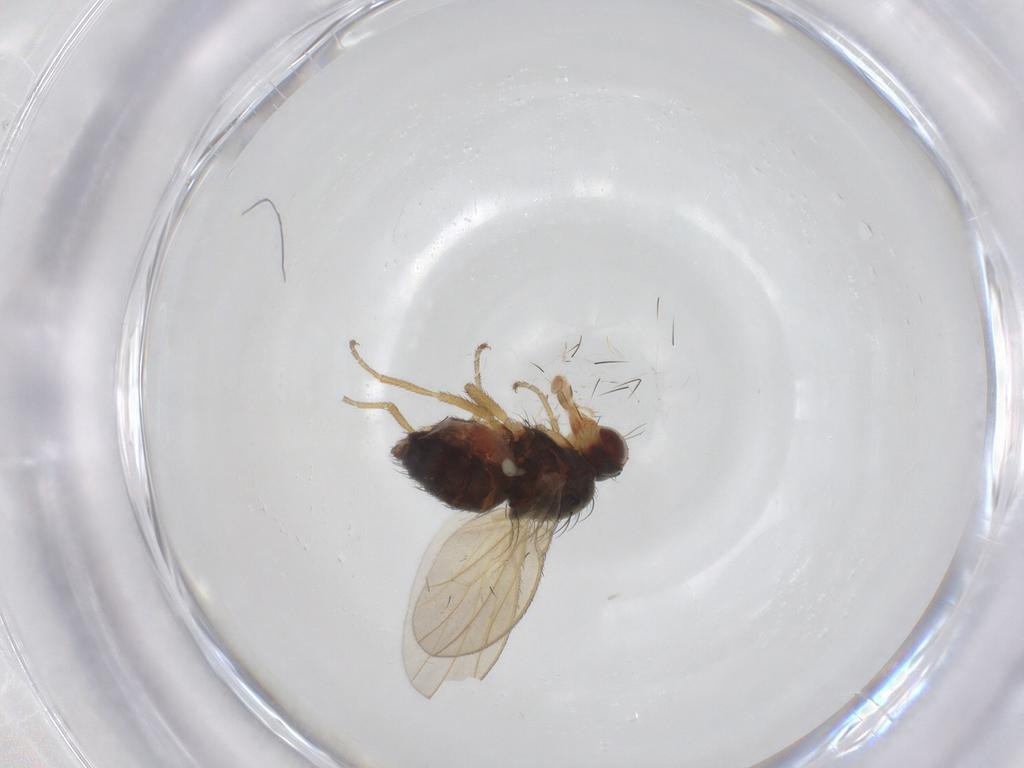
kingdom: Animalia
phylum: Arthropoda
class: Insecta
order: Diptera
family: Heleomyzidae
